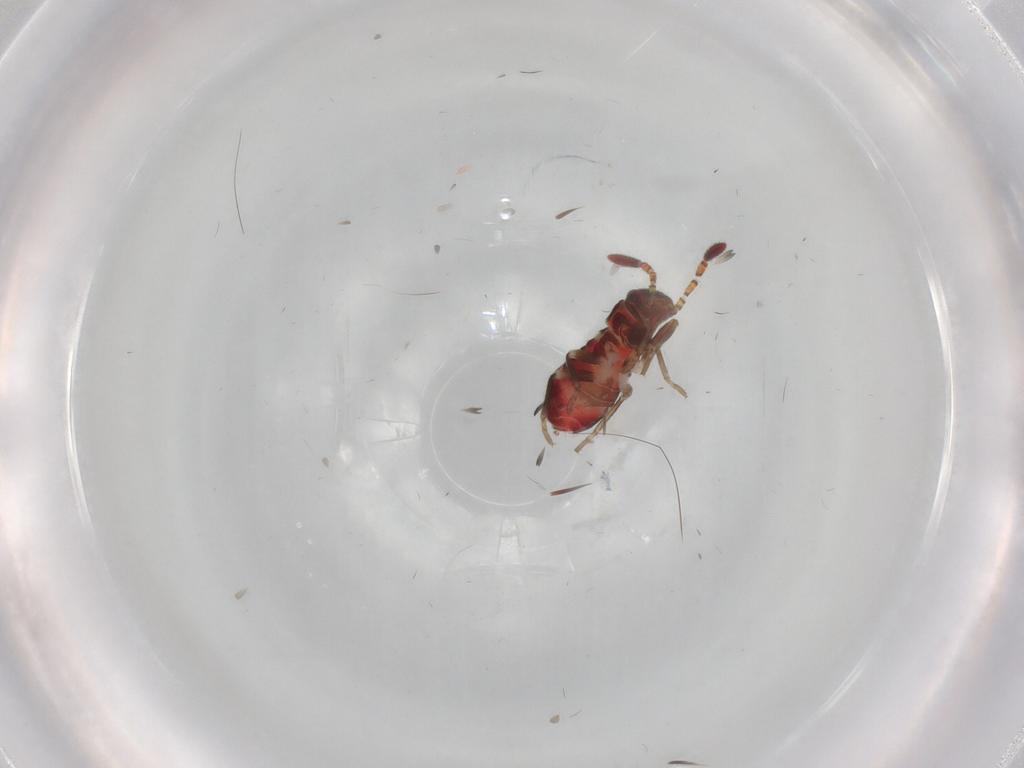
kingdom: Animalia
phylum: Arthropoda
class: Insecta
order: Hemiptera
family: Rhyparochromidae
